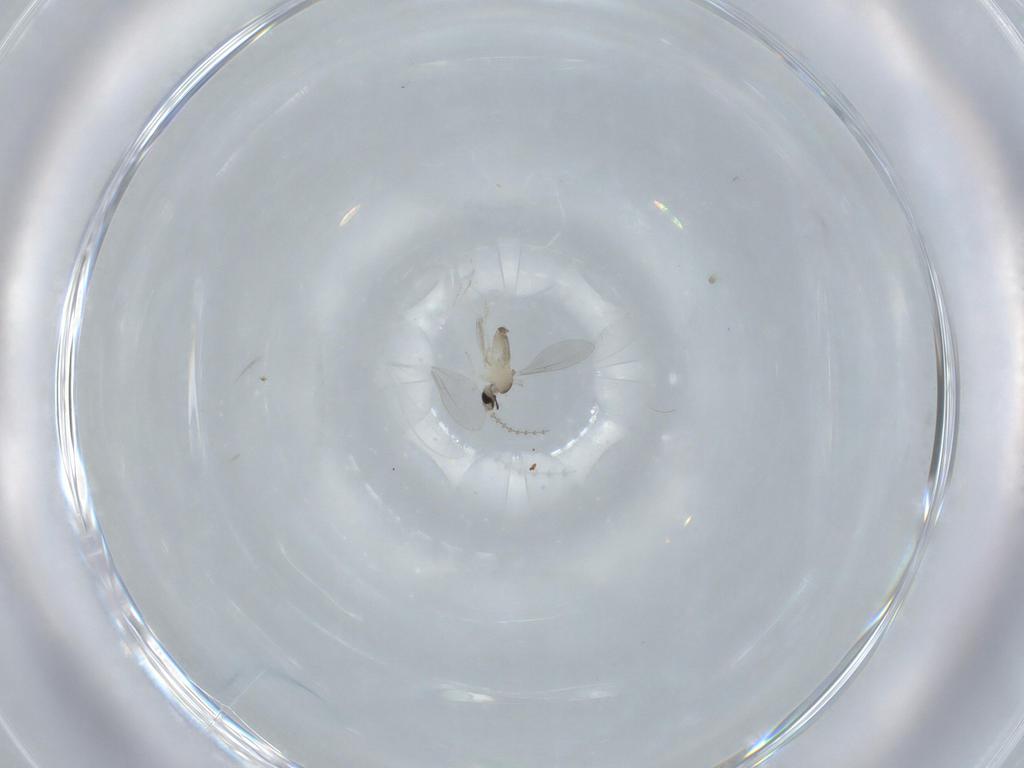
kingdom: Animalia
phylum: Arthropoda
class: Insecta
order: Diptera
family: Cecidomyiidae
